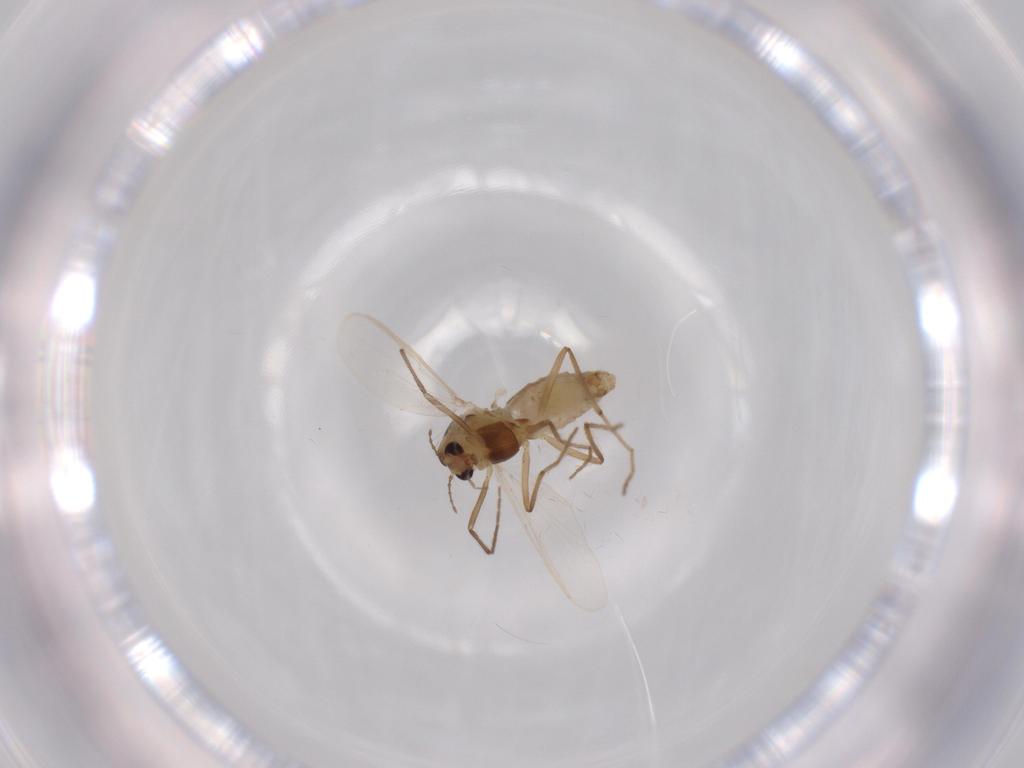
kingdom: Animalia
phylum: Arthropoda
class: Insecta
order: Diptera
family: Chironomidae
